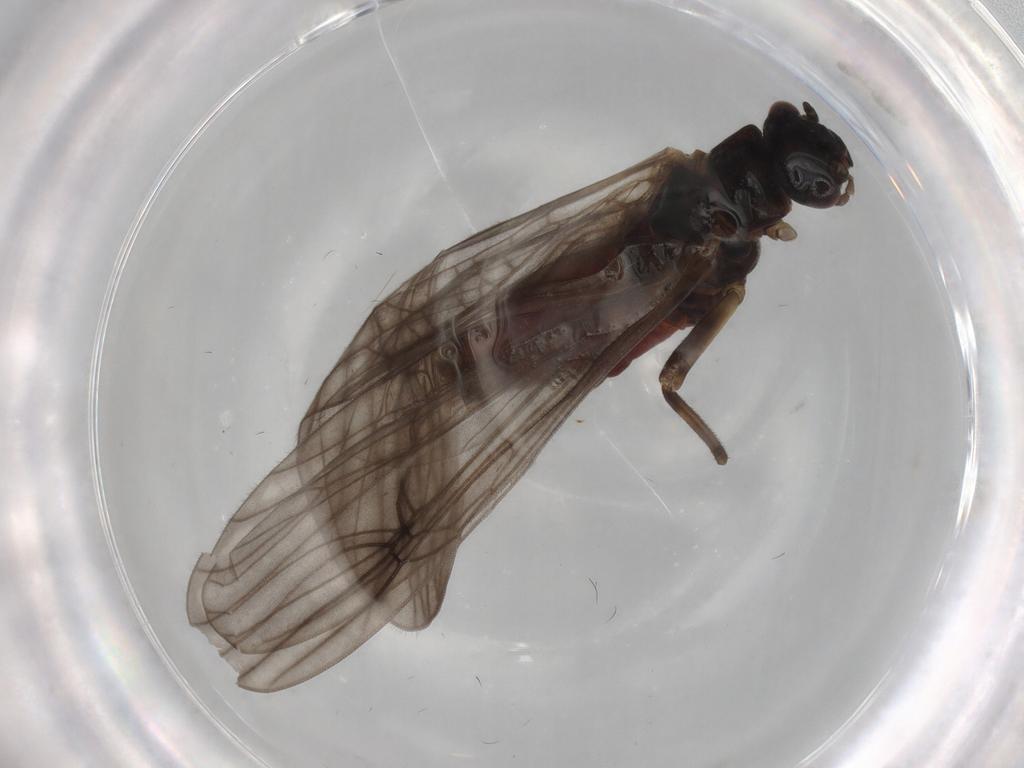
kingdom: Animalia
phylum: Arthropoda
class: Insecta
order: Plecoptera
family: Nemouridae
